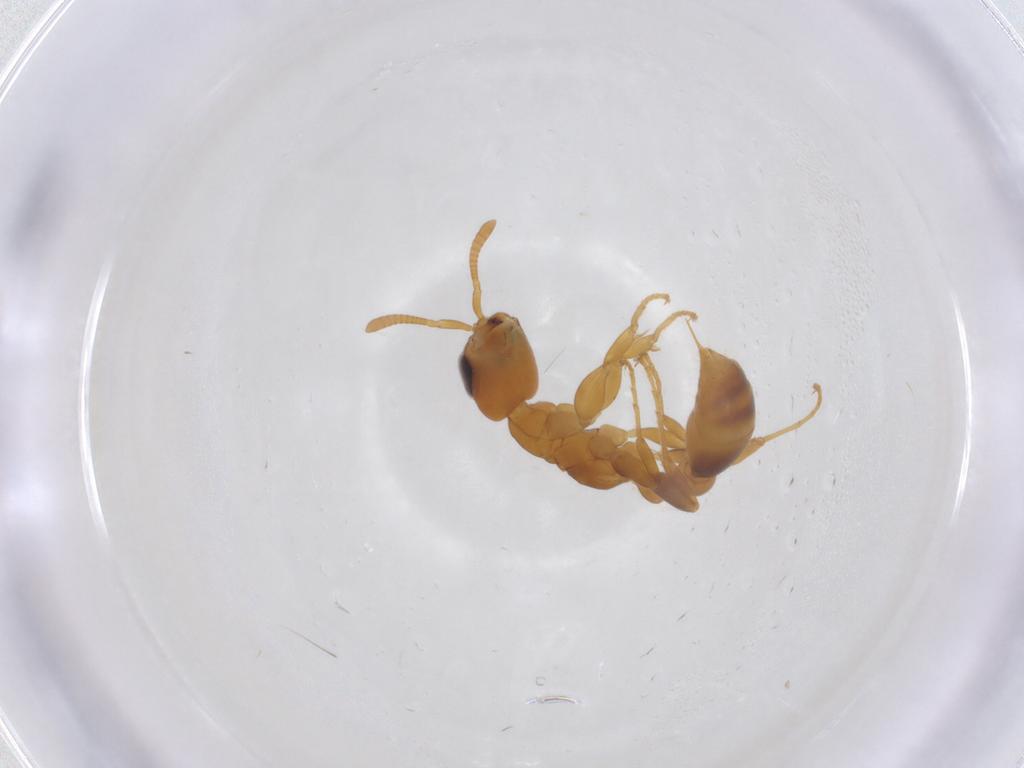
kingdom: Animalia
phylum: Arthropoda
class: Insecta
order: Hymenoptera
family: Formicidae
